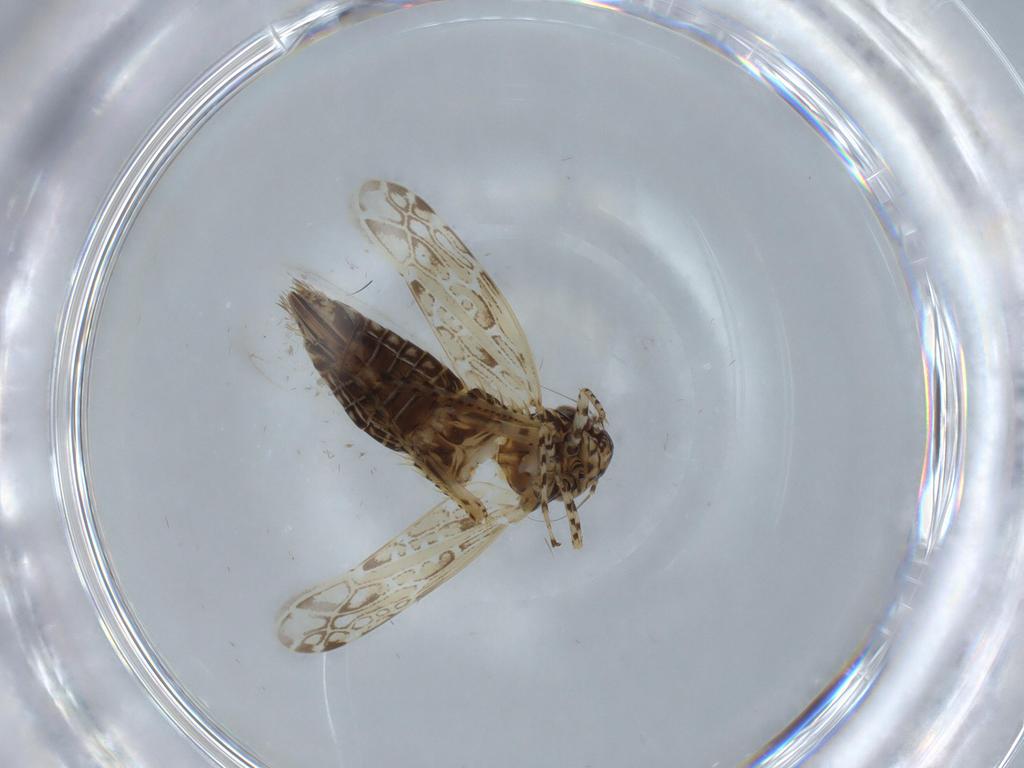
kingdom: Animalia
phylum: Arthropoda
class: Insecta
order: Hemiptera
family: Cicadellidae
